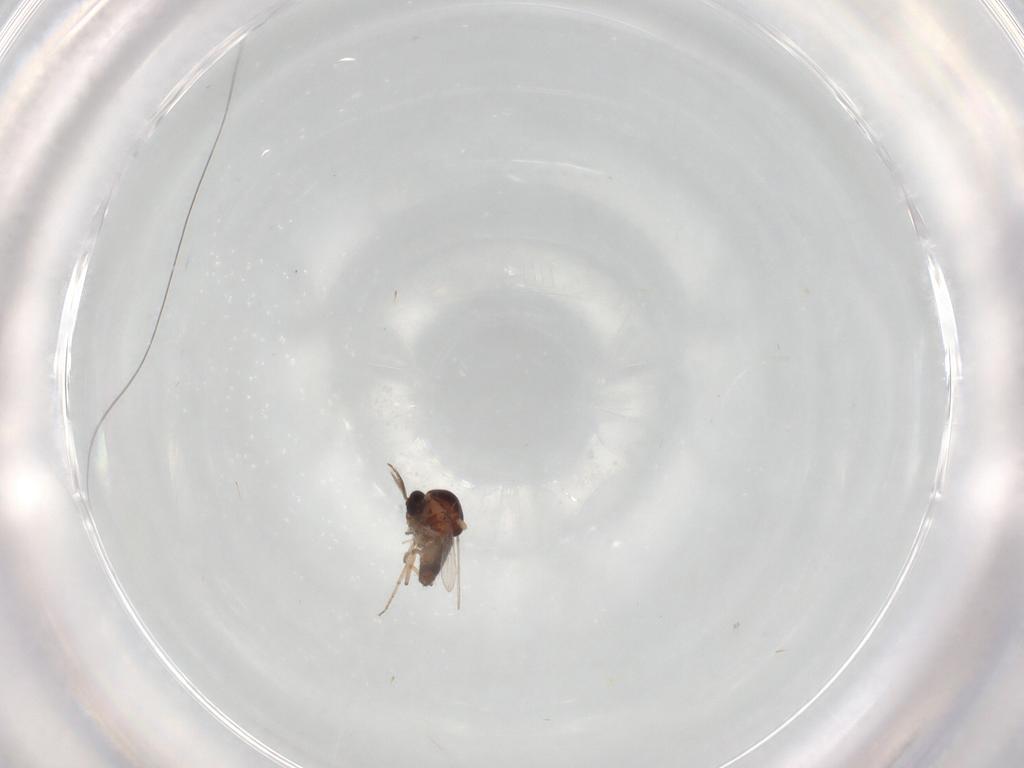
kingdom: Animalia
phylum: Arthropoda
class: Insecta
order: Diptera
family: Ceratopogonidae
